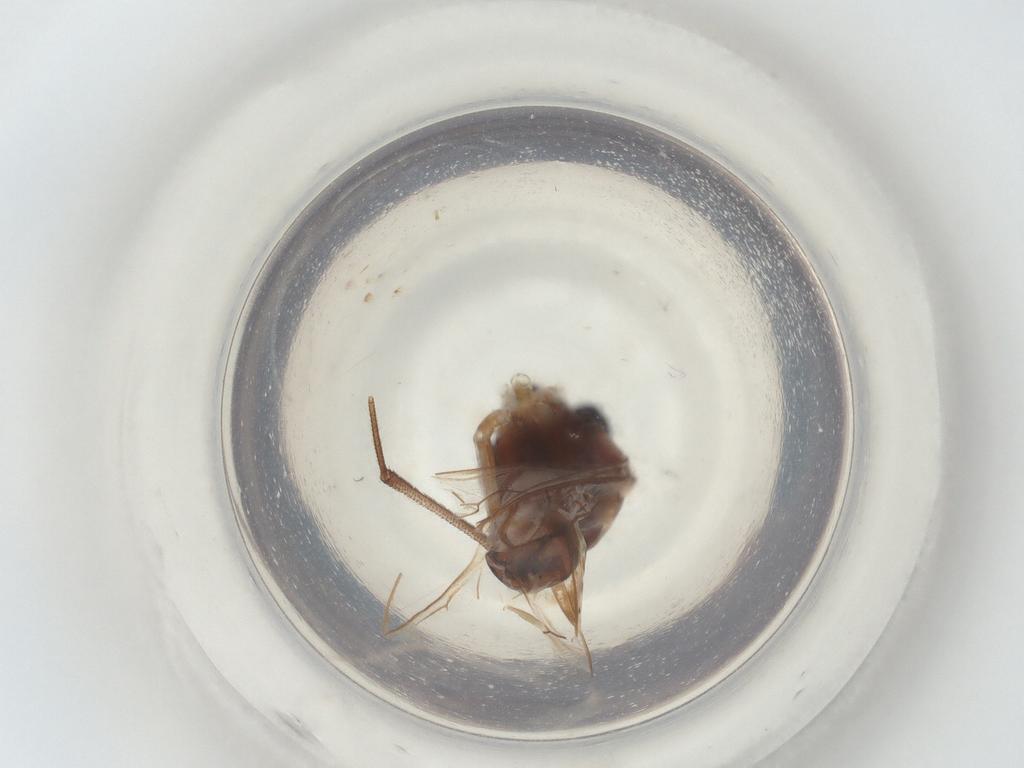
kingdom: Animalia
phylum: Arthropoda
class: Insecta
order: Diptera
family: Sciaridae
